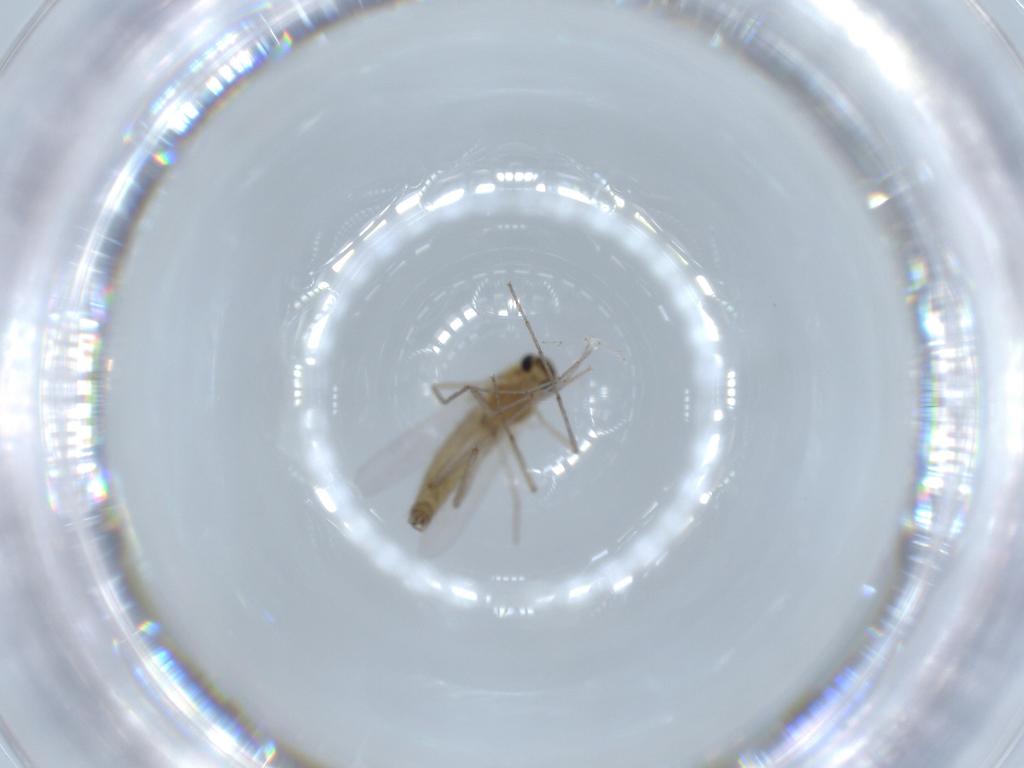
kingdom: Animalia
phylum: Arthropoda
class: Insecta
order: Diptera
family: Chironomidae
